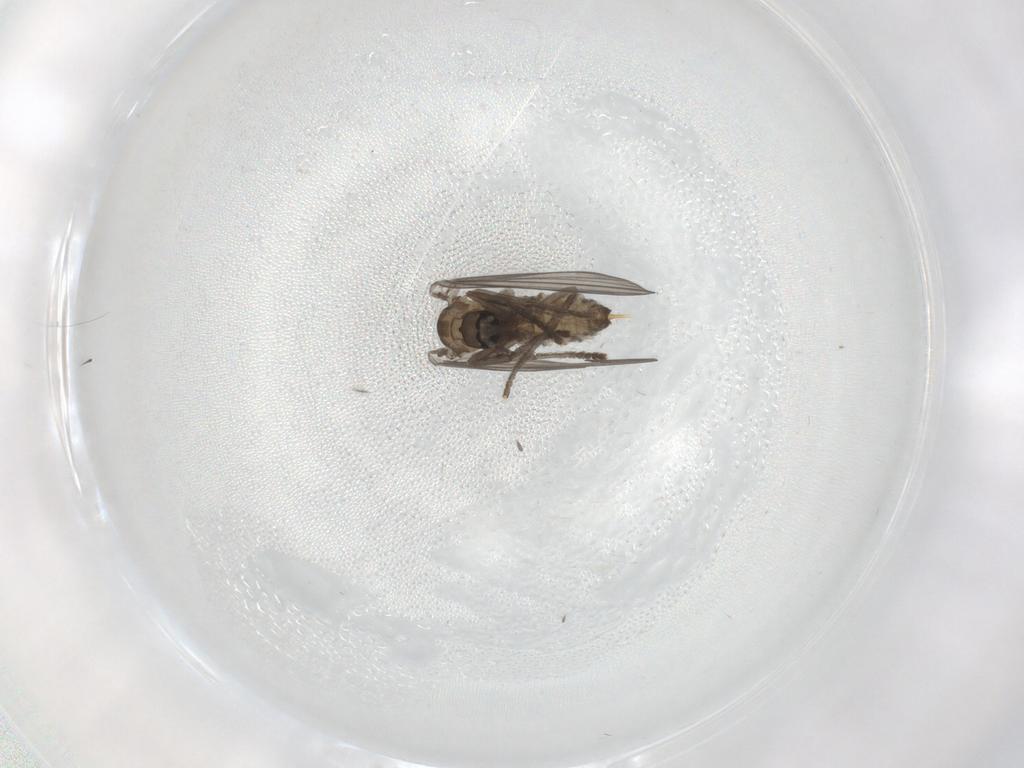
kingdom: Animalia
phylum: Arthropoda
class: Insecta
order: Diptera
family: Psychodidae
